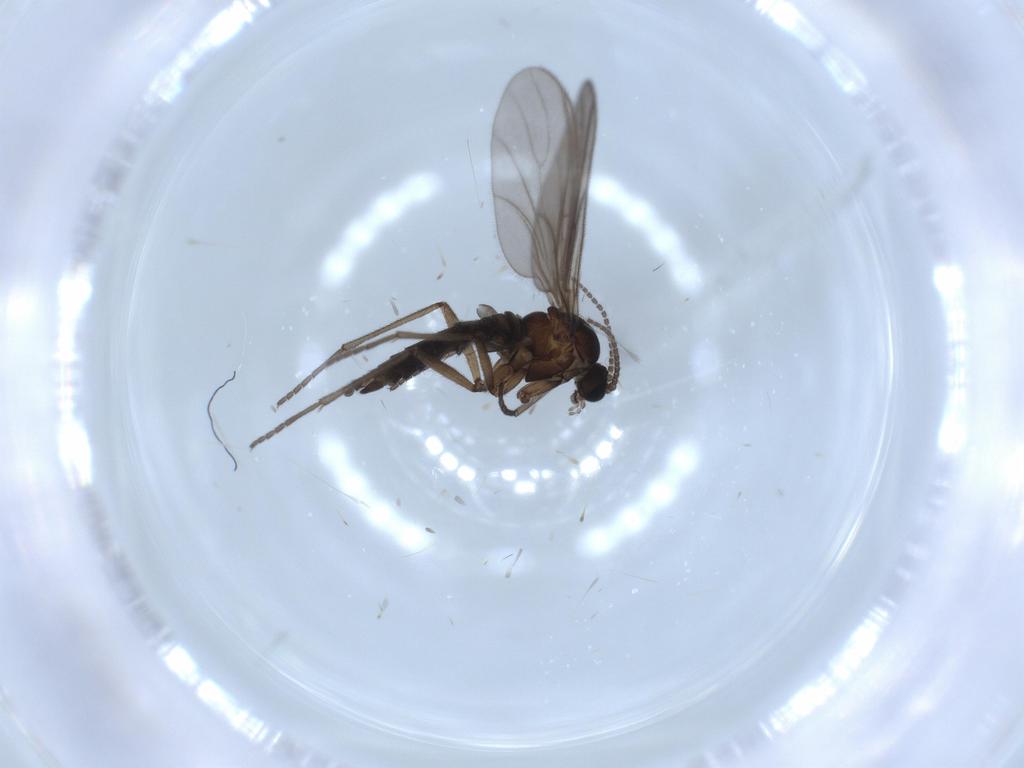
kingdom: Animalia
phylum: Arthropoda
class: Insecta
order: Diptera
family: Sciaridae
